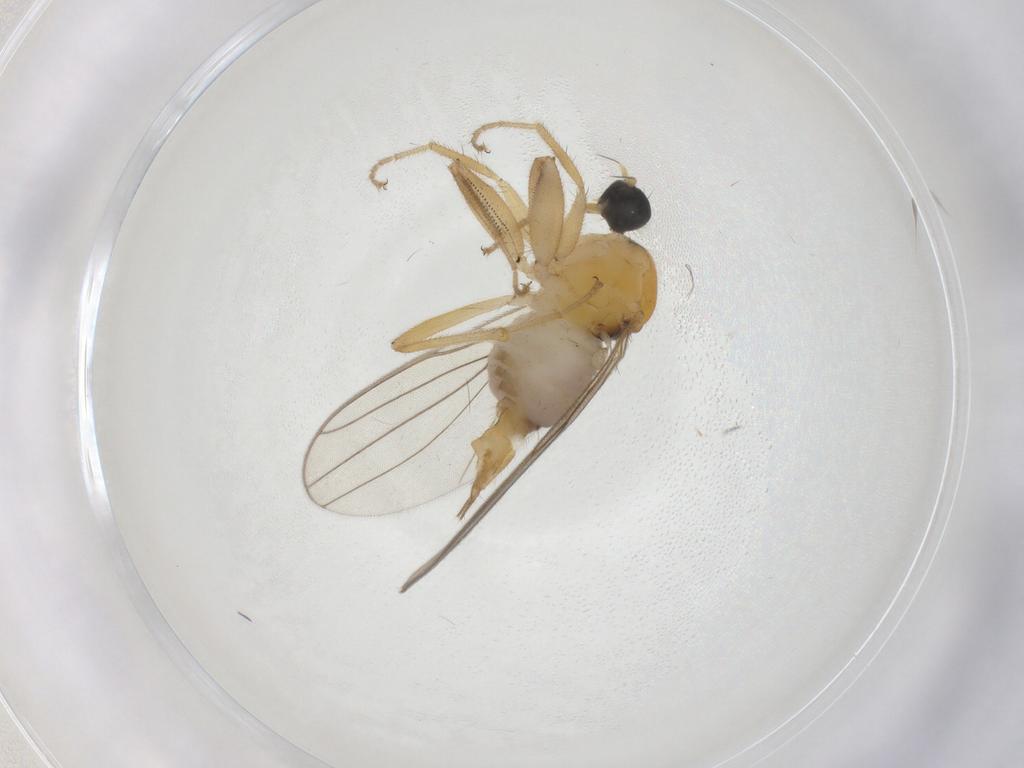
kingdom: Animalia
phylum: Arthropoda
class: Insecta
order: Diptera
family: Hybotidae
